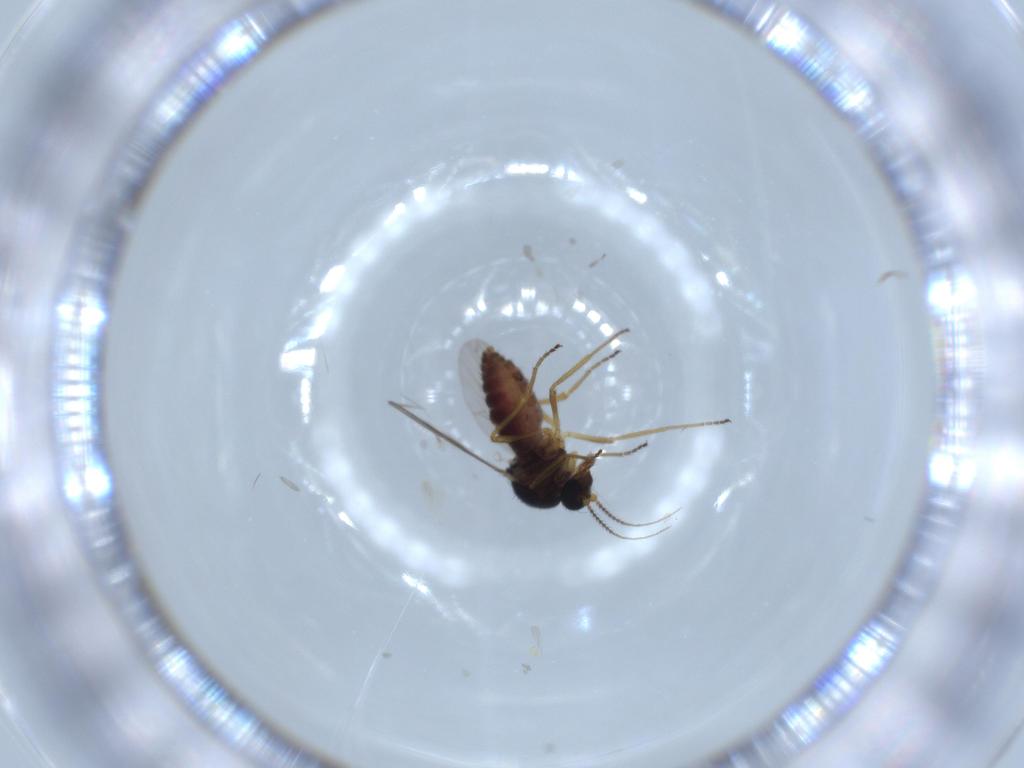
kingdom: Animalia
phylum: Arthropoda
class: Insecta
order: Diptera
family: Ceratopogonidae
